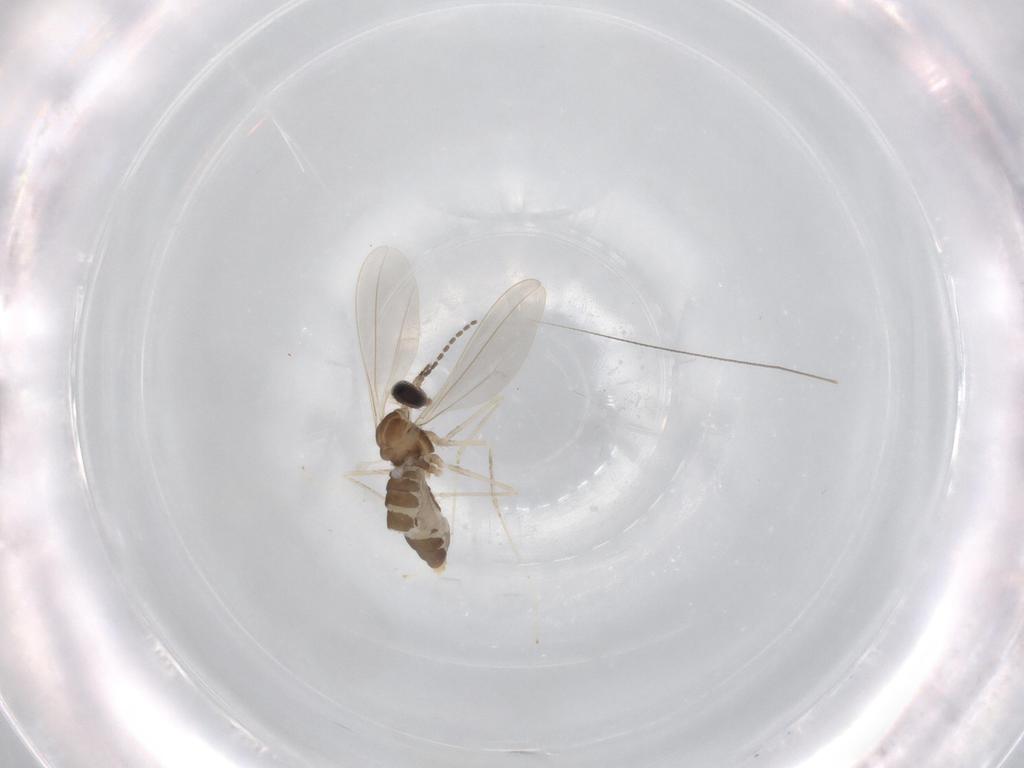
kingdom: Animalia
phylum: Arthropoda
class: Insecta
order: Diptera
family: Cecidomyiidae
